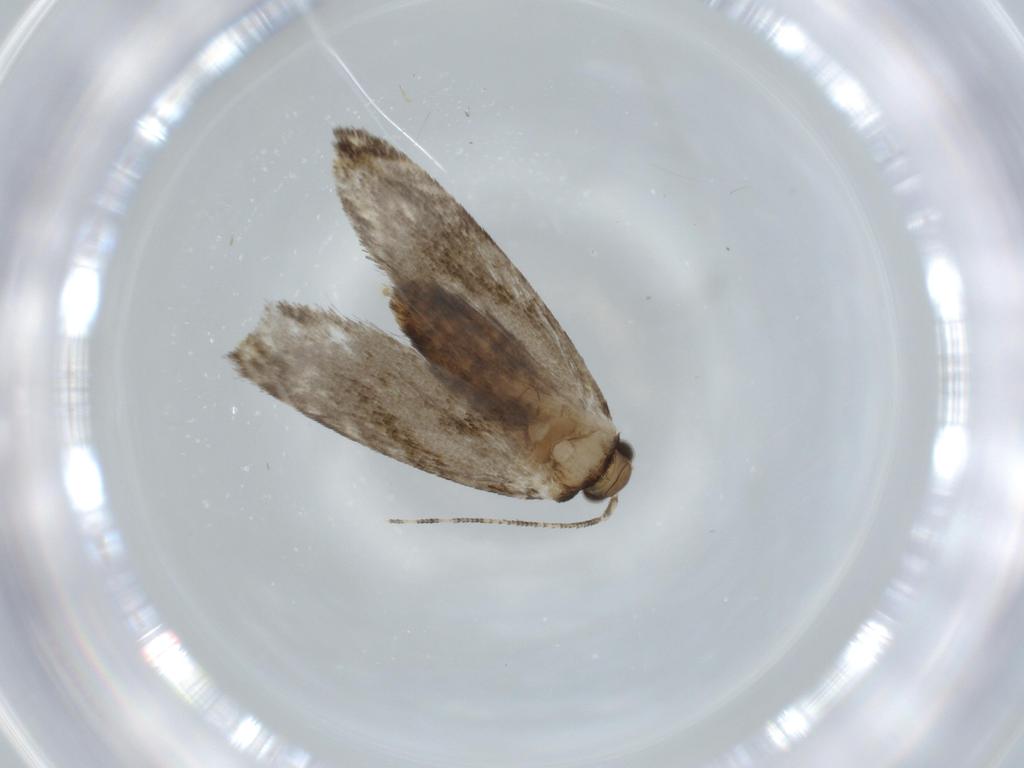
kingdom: Animalia
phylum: Arthropoda
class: Insecta
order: Lepidoptera
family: Tineidae
